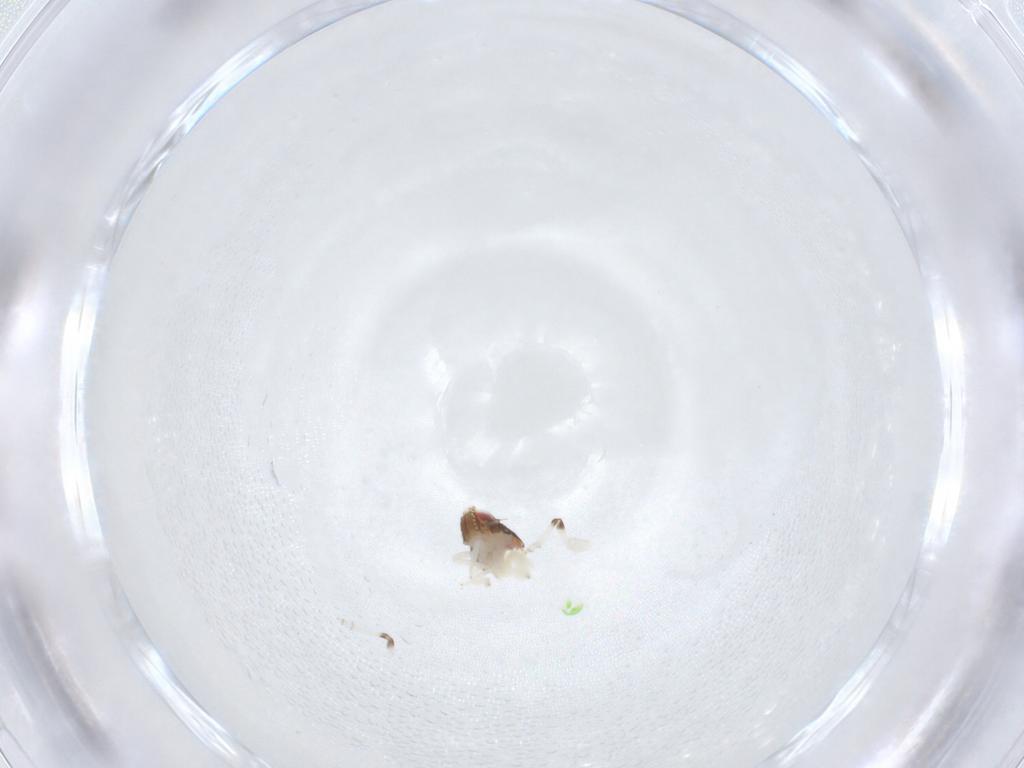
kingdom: Animalia
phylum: Arthropoda
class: Insecta
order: Hemiptera
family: Nogodinidae
